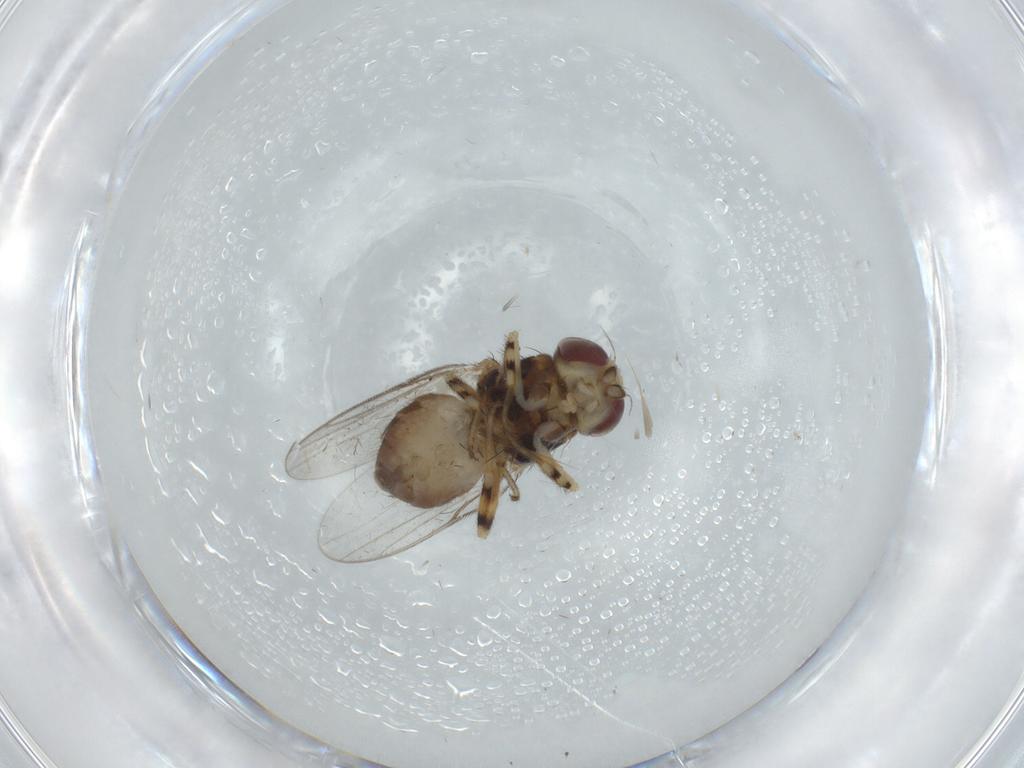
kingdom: Animalia
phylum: Arthropoda
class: Insecta
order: Diptera
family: Chloropidae
